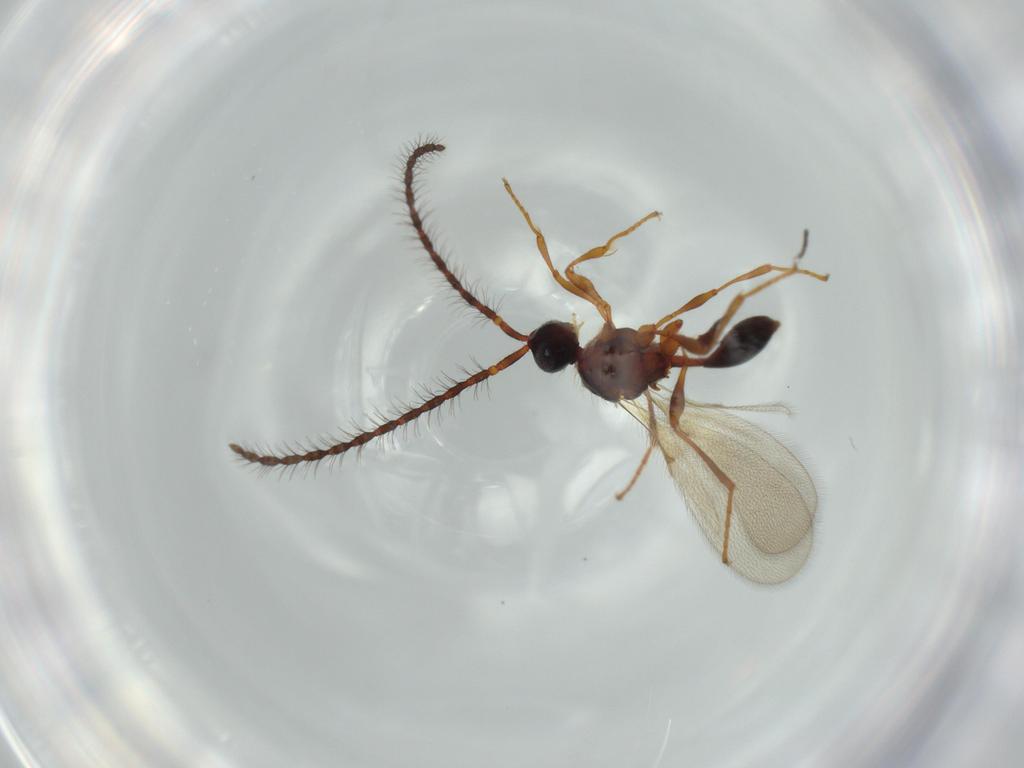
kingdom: Animalia
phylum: Arthropoda
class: Insecta
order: Hymenoptera
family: Diapriidae
